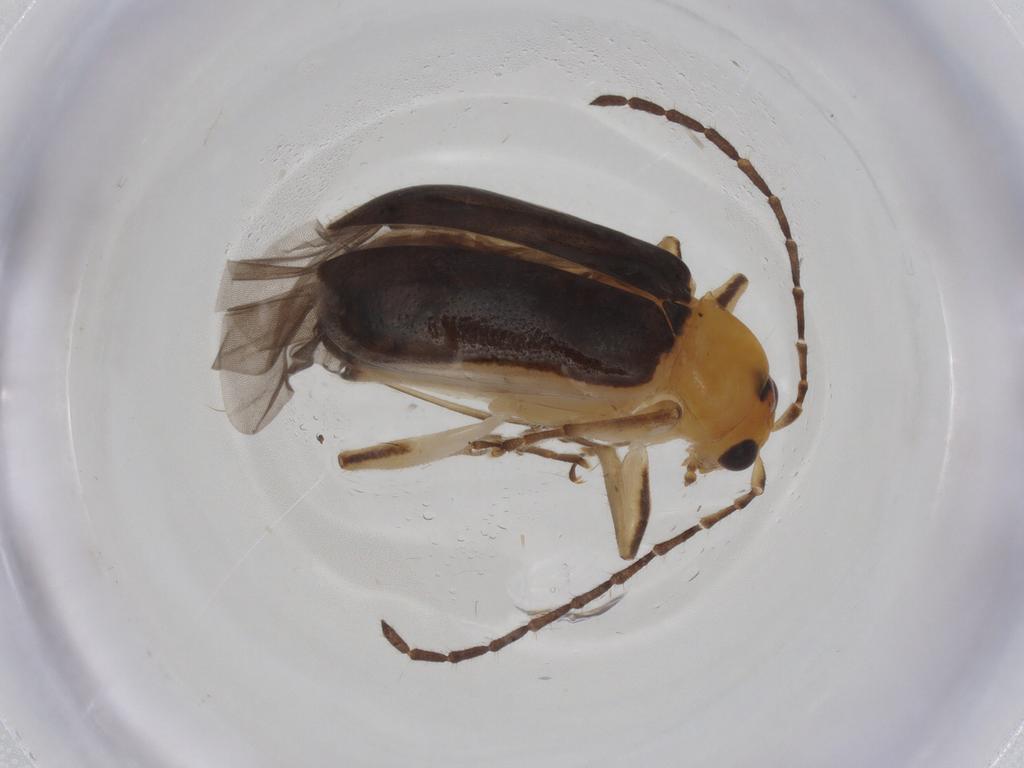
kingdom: Animalia
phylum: Arthropoda
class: Insecta
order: Coleoptera
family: Chrysomelidae
